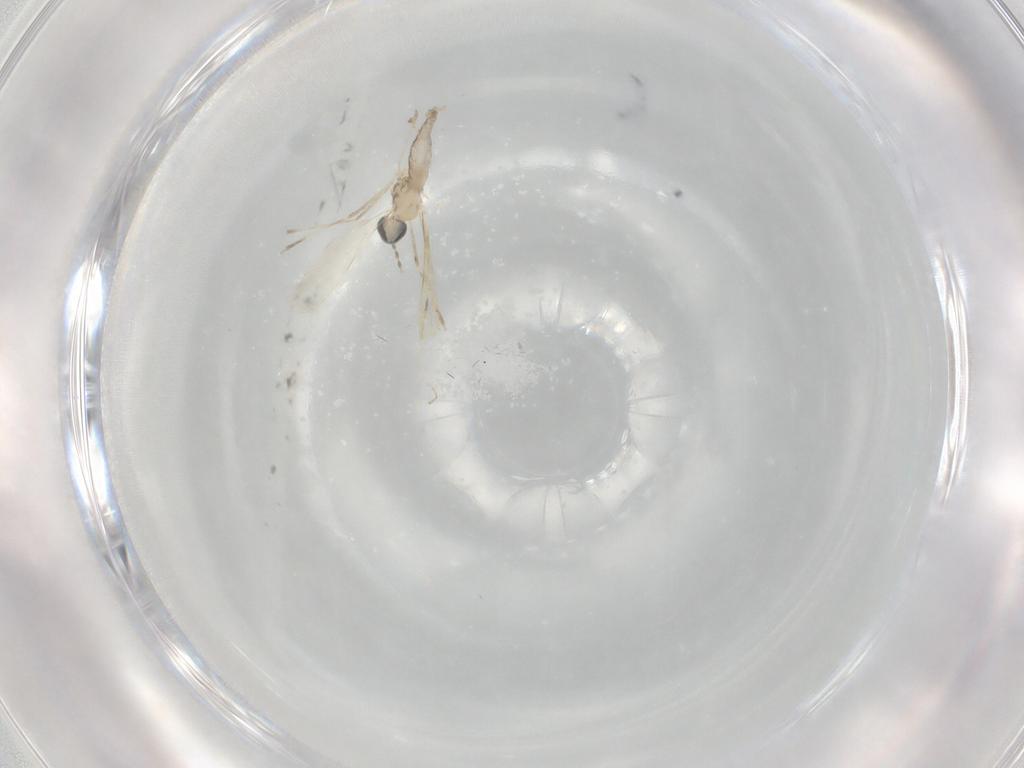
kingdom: Animalia
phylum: Arthropoda
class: Insecta
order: Diptera
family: Cecidomyiidae
